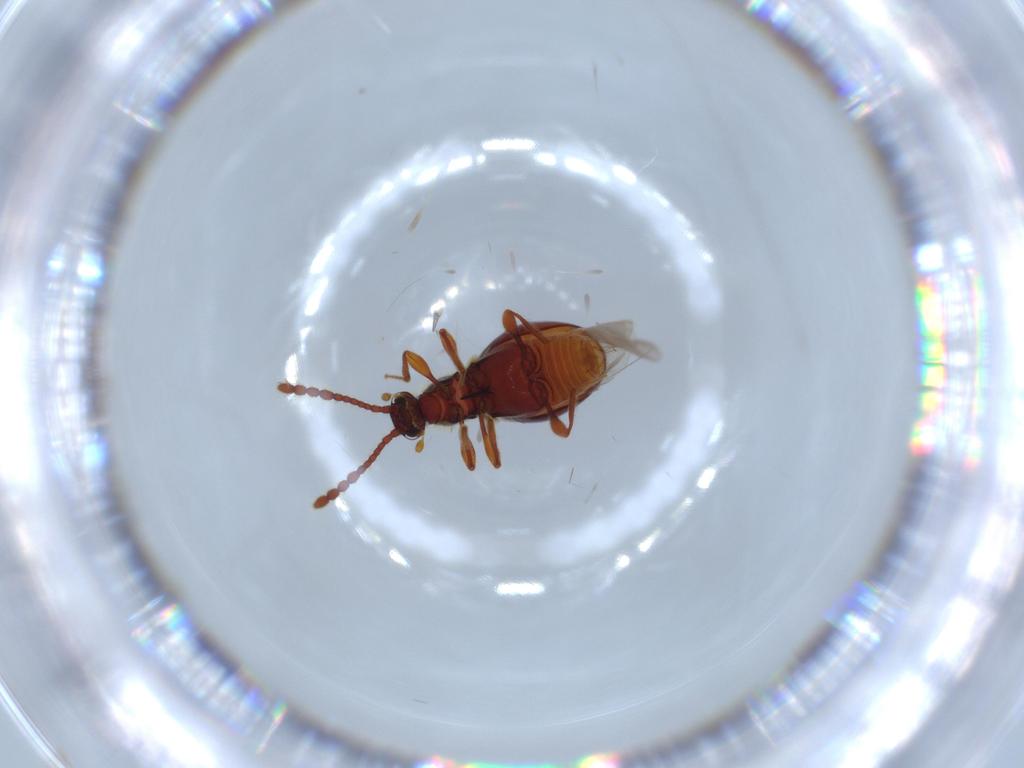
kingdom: Animalia
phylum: Arthropoda
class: Insecta
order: Coleoptera
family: Staphylinidae
